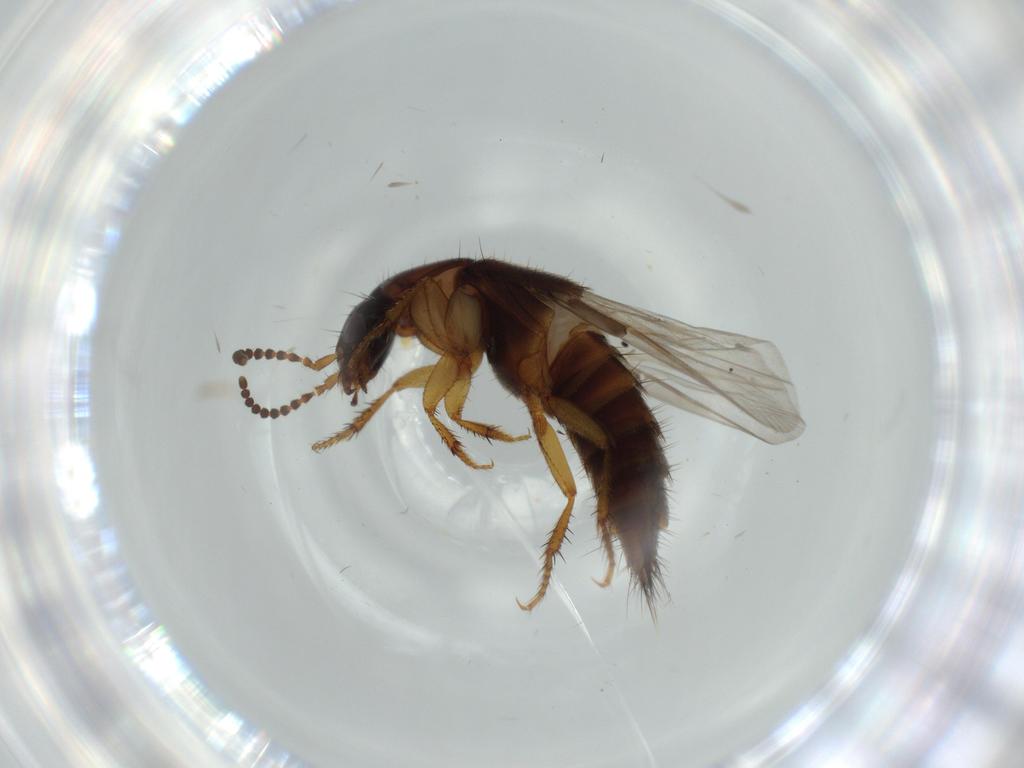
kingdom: Animalia
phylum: Arthropoda
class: Insecta
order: Coleoptera
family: Staphylinidae
